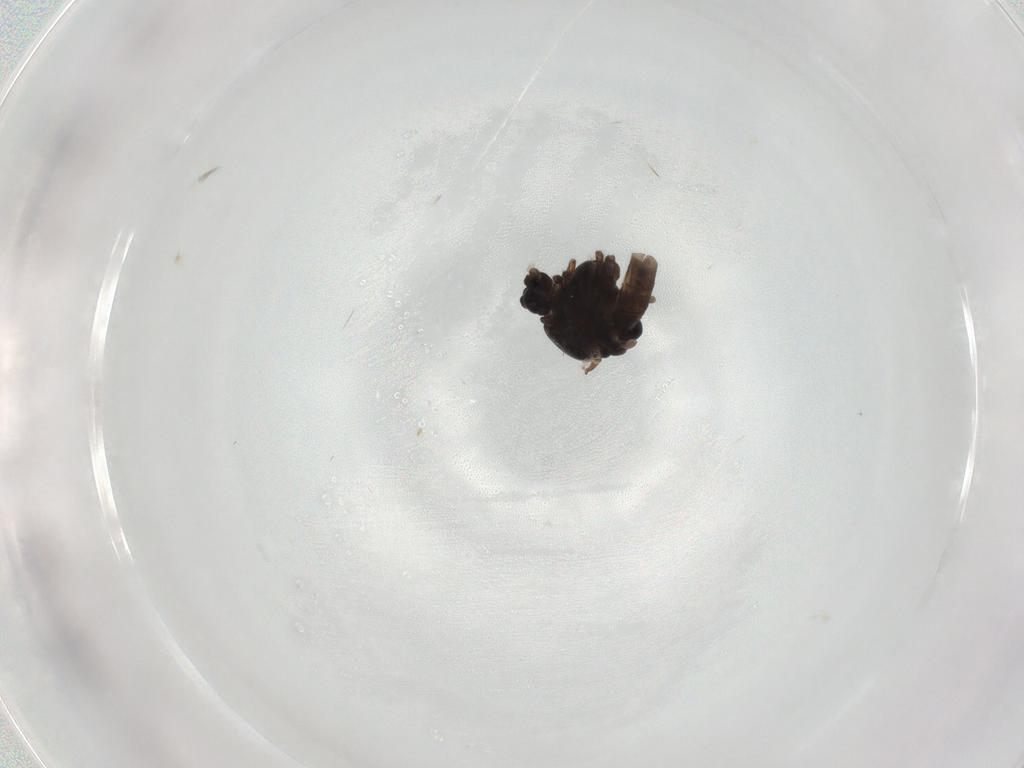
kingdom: Animalia
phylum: Arthropoda
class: Insecta
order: Diptera
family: Chironomidae
